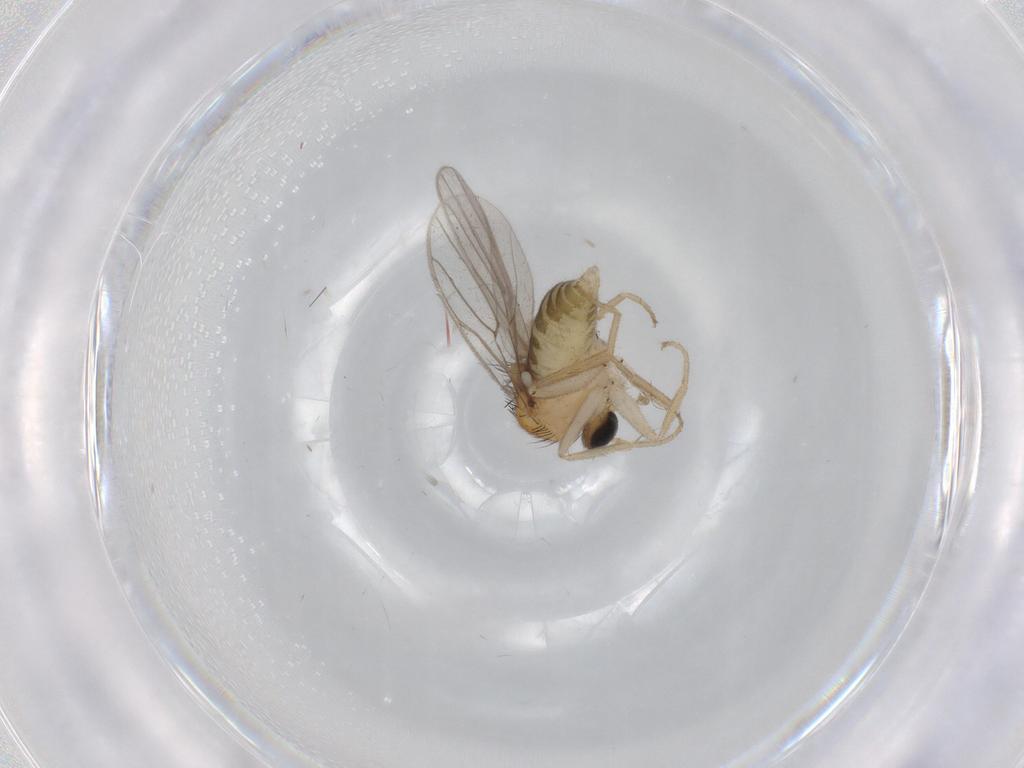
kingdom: Animalia
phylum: Arthropoda
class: Insecta
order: Diptera
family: Hybotidae
